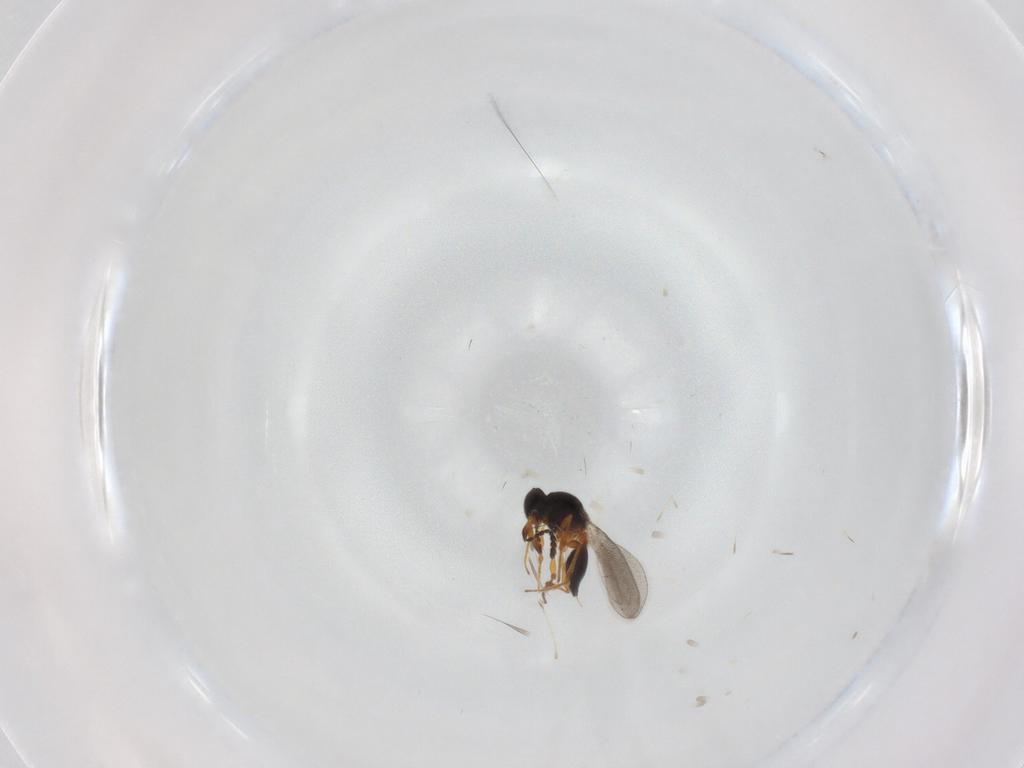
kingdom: Animalia
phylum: Arthropoda
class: Insecta
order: Hymenoptera
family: Platygastridae
